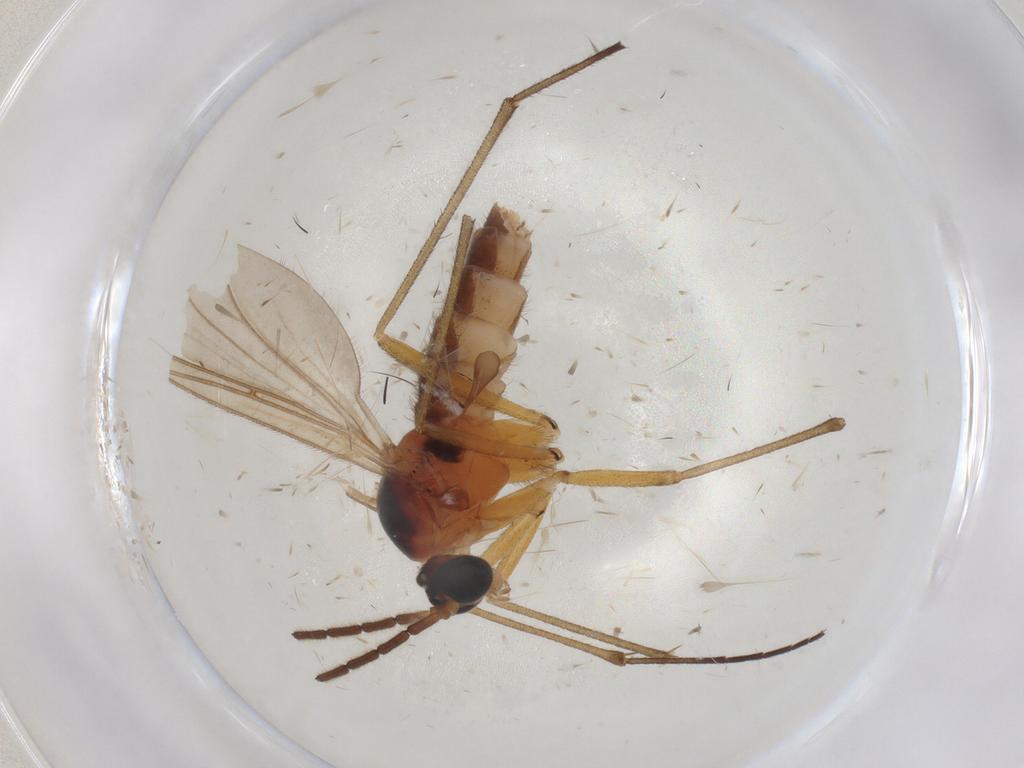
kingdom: Animalia
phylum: Arthropoda
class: Insecta
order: Diptera
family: Sciaridae
